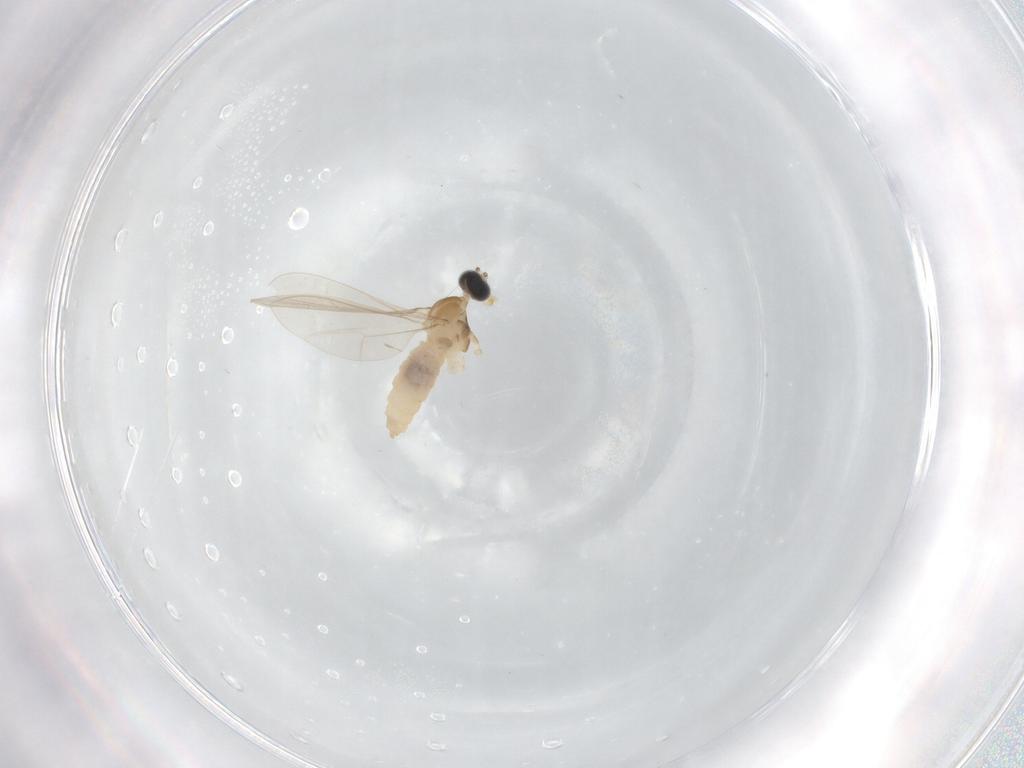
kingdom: Animalia
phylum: Arthropoda
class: Insecta
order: Diptera
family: Cecidomyiidae
